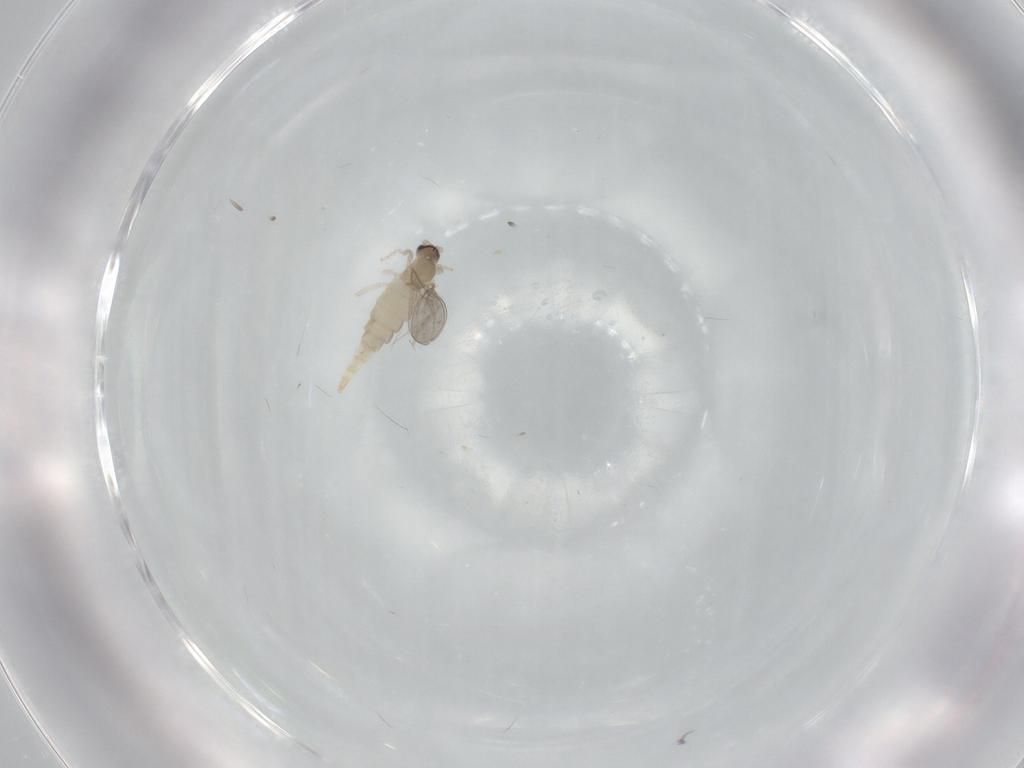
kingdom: Animalia
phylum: Arthropoda
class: Insecta
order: Diptera
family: Cecidomyiidae
